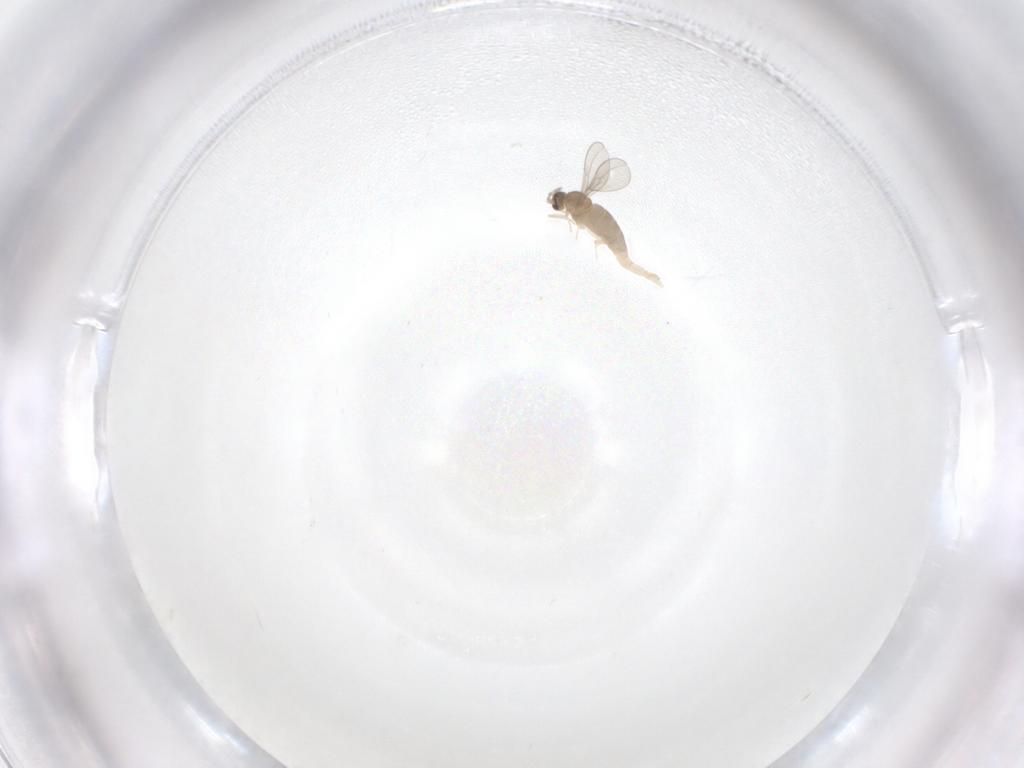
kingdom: Animalia
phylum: Arthropoda
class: Insecta
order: Diptera
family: Cecidomyiidae
